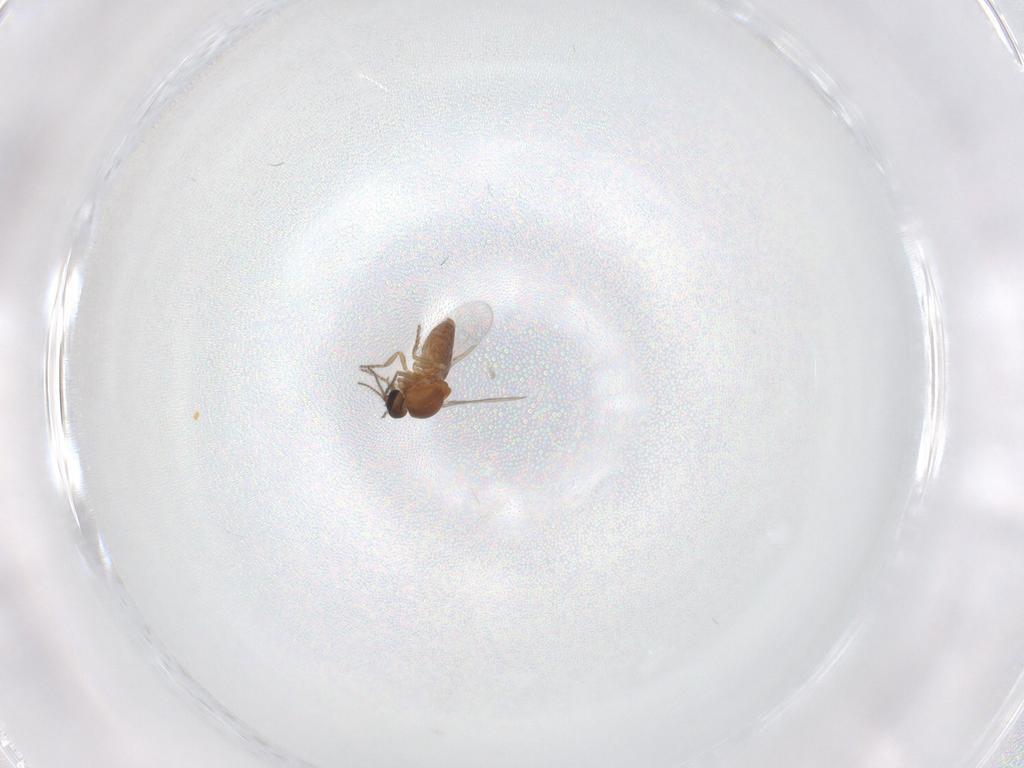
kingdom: Animalia
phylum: Arthropoda
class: Insecta
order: Diptera
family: Ceratopogonidae
